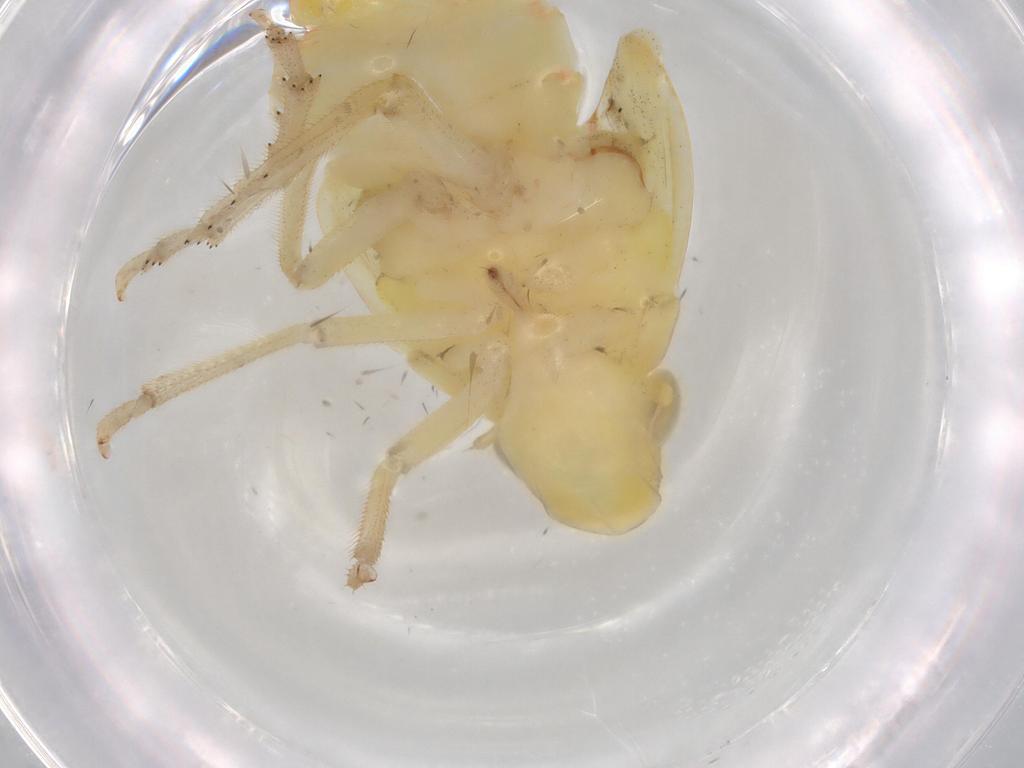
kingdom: Animalia
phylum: Arthropoda
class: Insecta
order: Hemiptera
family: Tropiduchidae
